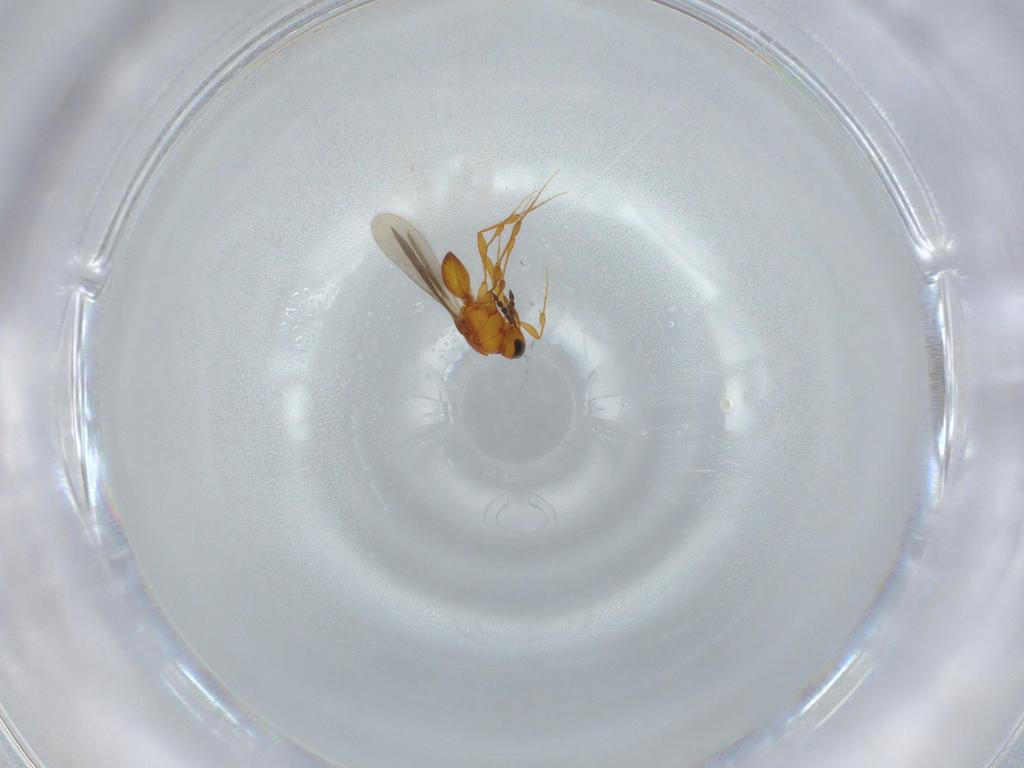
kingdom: Animalia
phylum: Arthropoda
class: Insecta
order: Hymenoptera
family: Platygastridae
